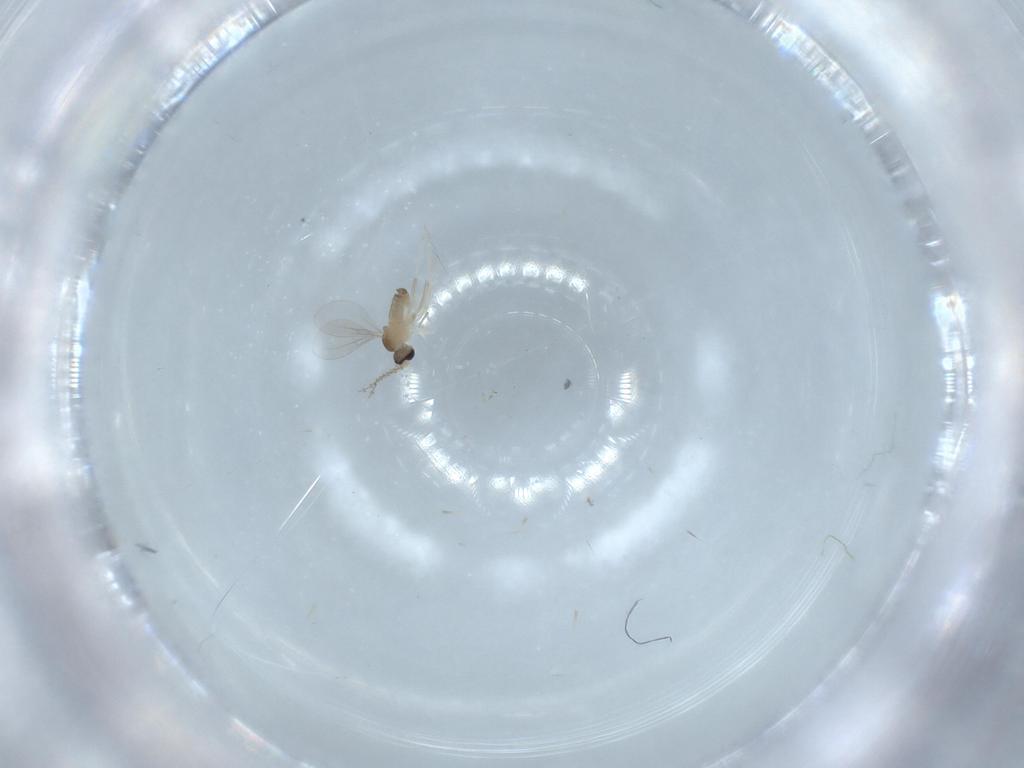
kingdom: Animalia
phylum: Arthropoda
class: Insecta
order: Diptera
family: Cecidomyiidae
